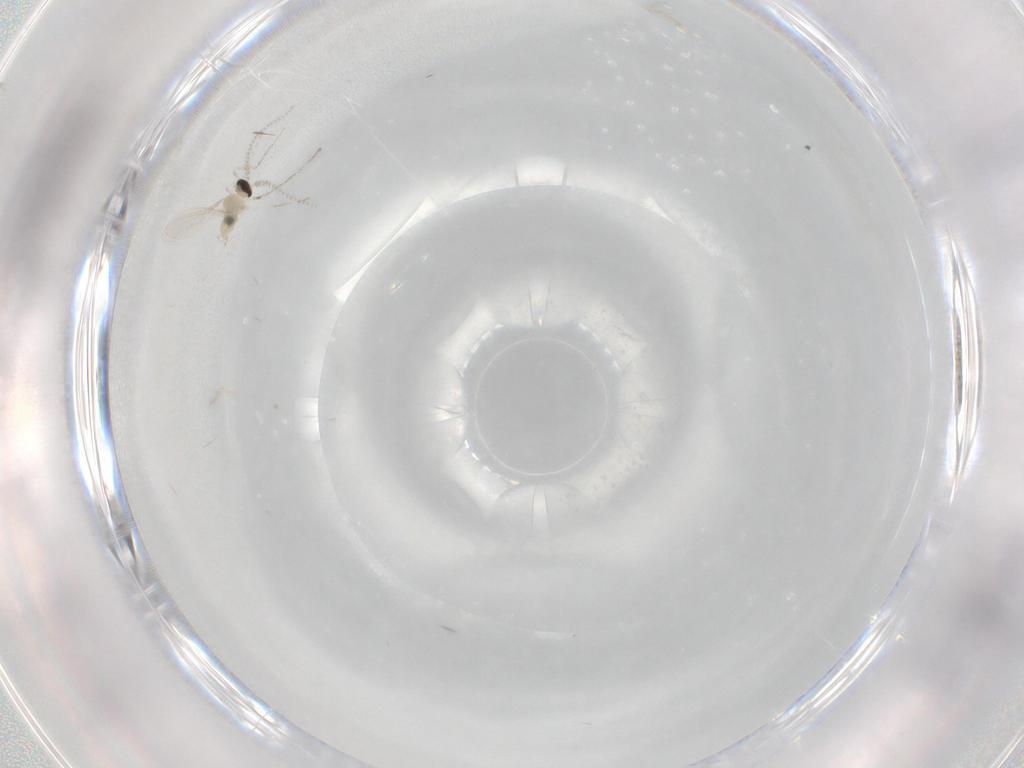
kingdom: Animalia
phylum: Arthropoda
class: Insecta
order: Diptera
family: Cecidomyiidae
